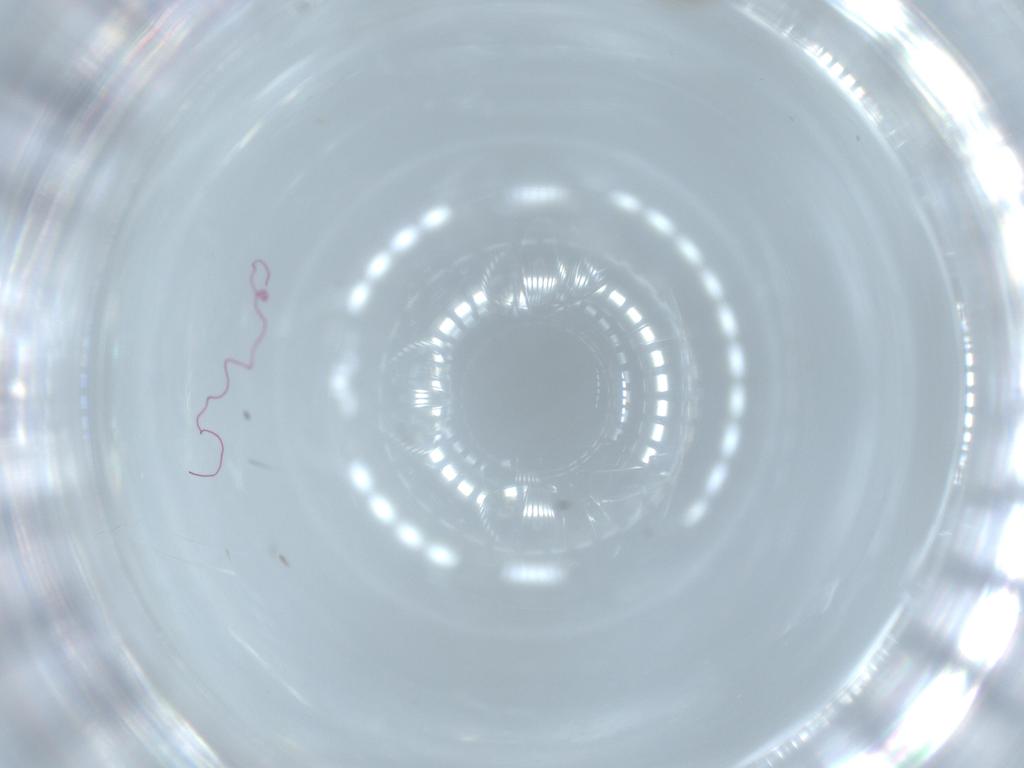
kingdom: Animalia
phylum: Arthropoda
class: Insecta
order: Diptera
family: Cecidomyiidae
